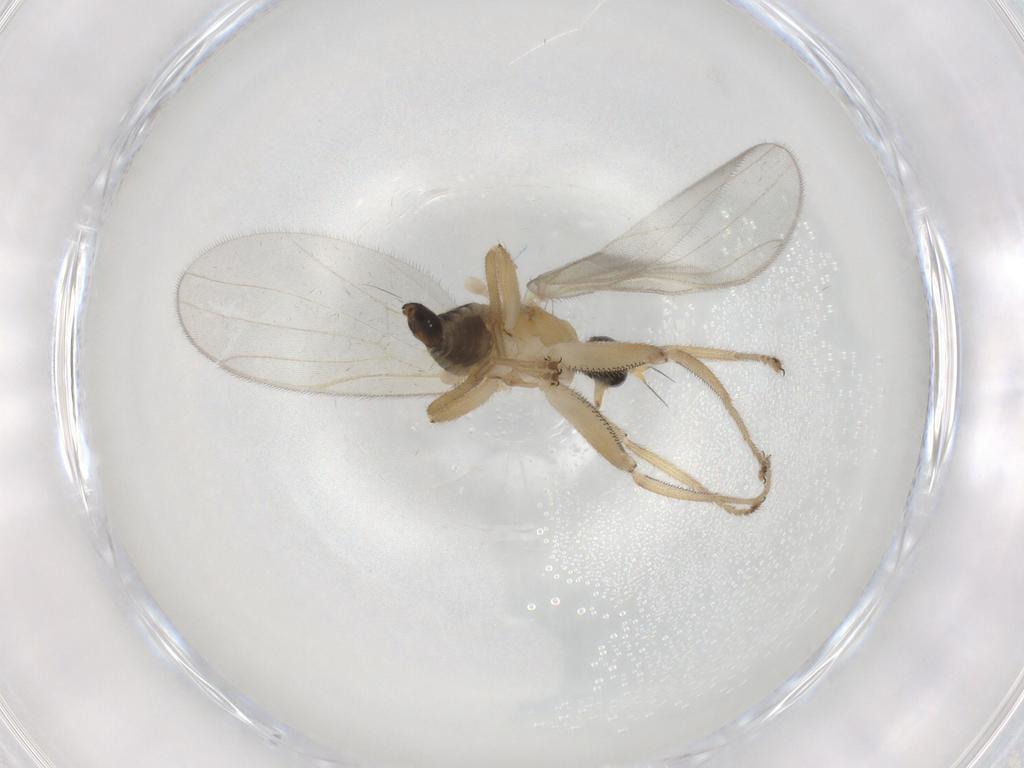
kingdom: Animalia
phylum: Arthropoda
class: Insecta
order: Diptera
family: Hybotidae
